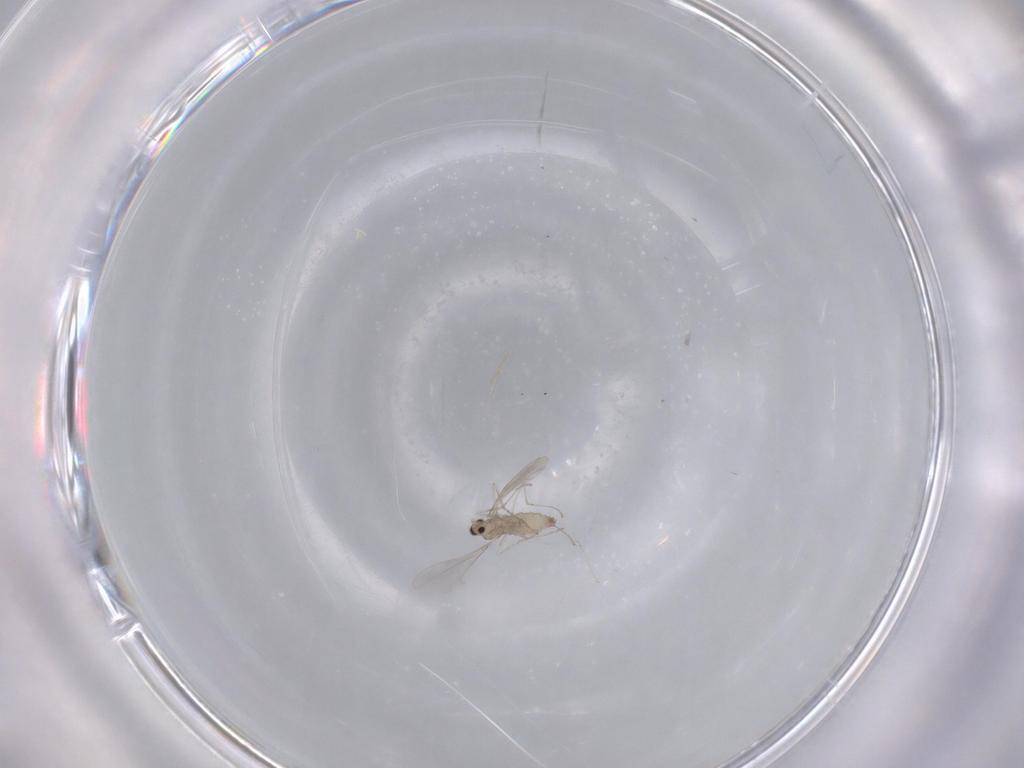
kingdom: Animalia
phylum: Arthropoda
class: Insecta
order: Diptera
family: Cecidomyiidae
